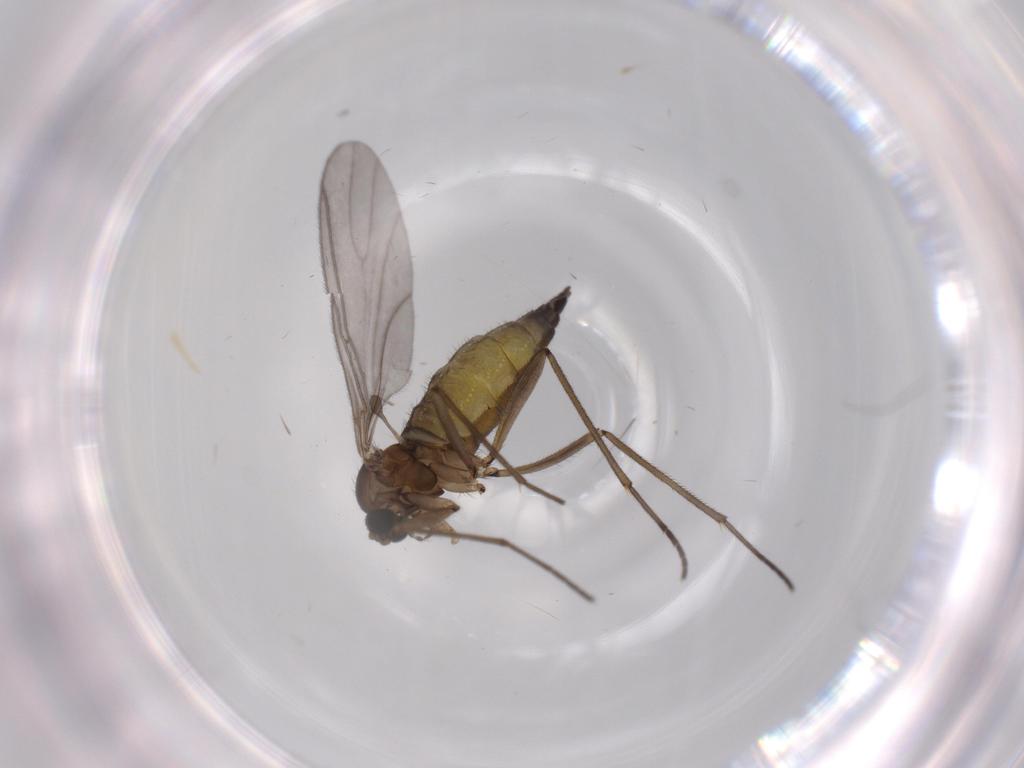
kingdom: Animalia
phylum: Arthropoda
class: Insecta
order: Diptera
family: Sciaridae
